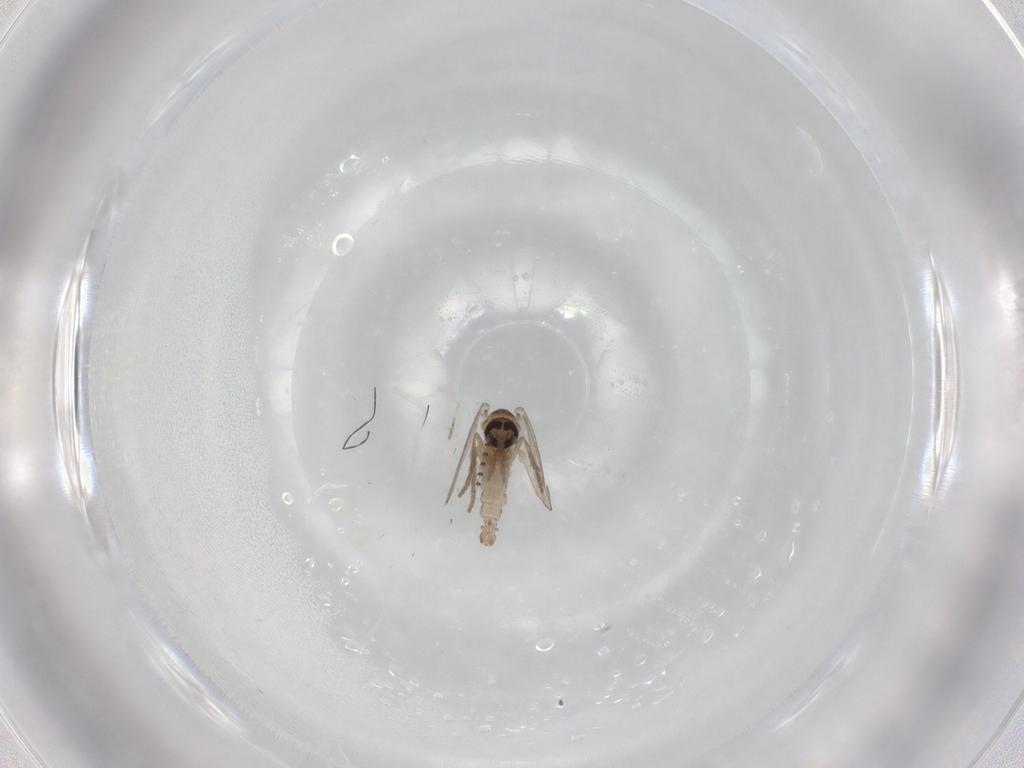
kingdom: Animalia
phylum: Arthropoda
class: Insecta
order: Diptera
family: Psychodidae
